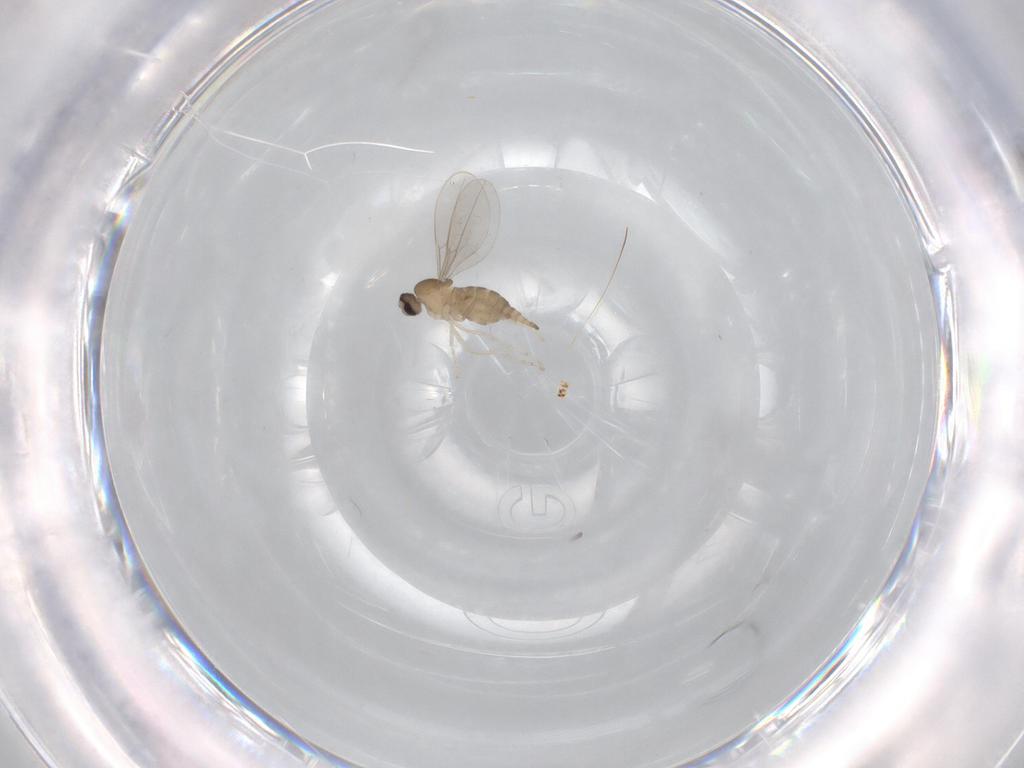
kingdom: Animalia
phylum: Arthropoda
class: Insecta
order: Diptera
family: Cecidomyiidae
